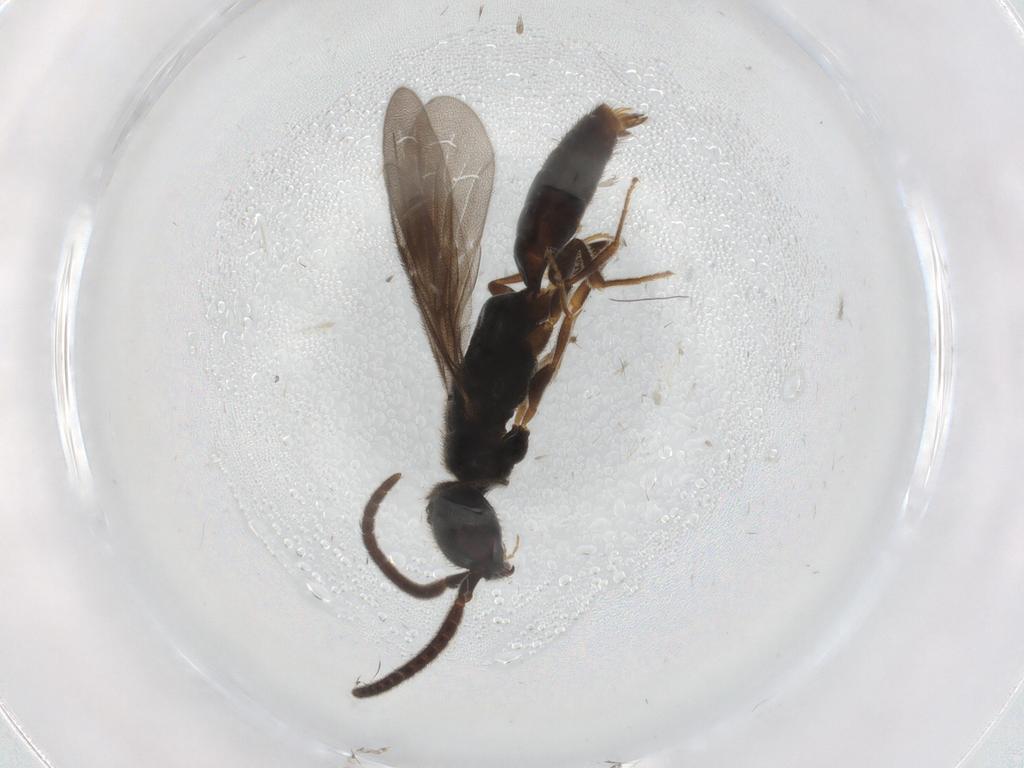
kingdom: Animalia
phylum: Arthropoda
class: Insecta
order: Hymenoptera
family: Bethylidae
